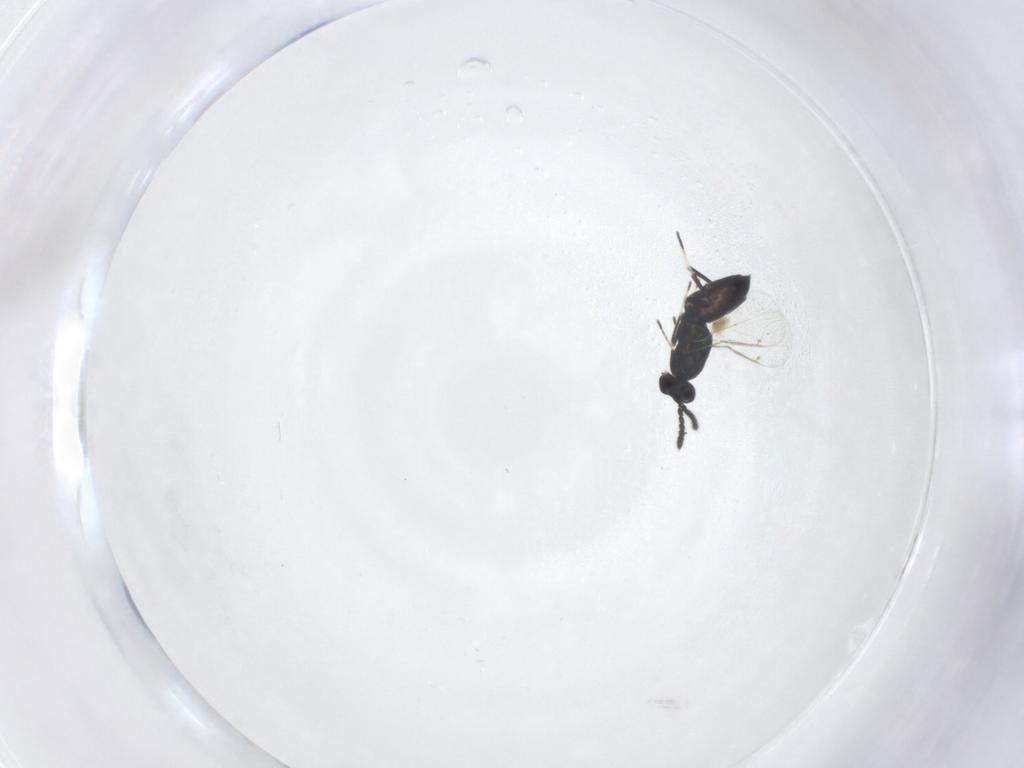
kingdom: Animalia
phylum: Arthropoda
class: Insecta
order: Hymenoptera
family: Eulophidae
